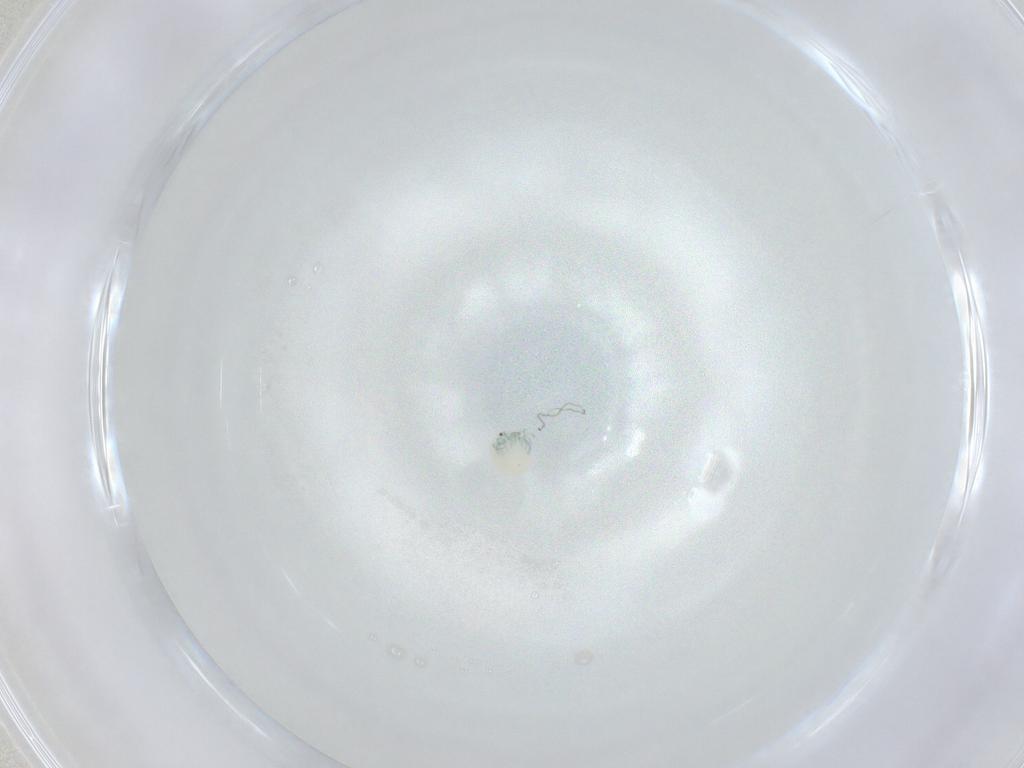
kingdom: Animalia
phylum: Arthropoda
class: Arachnida
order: Trombidiformes
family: Arrenuridae
